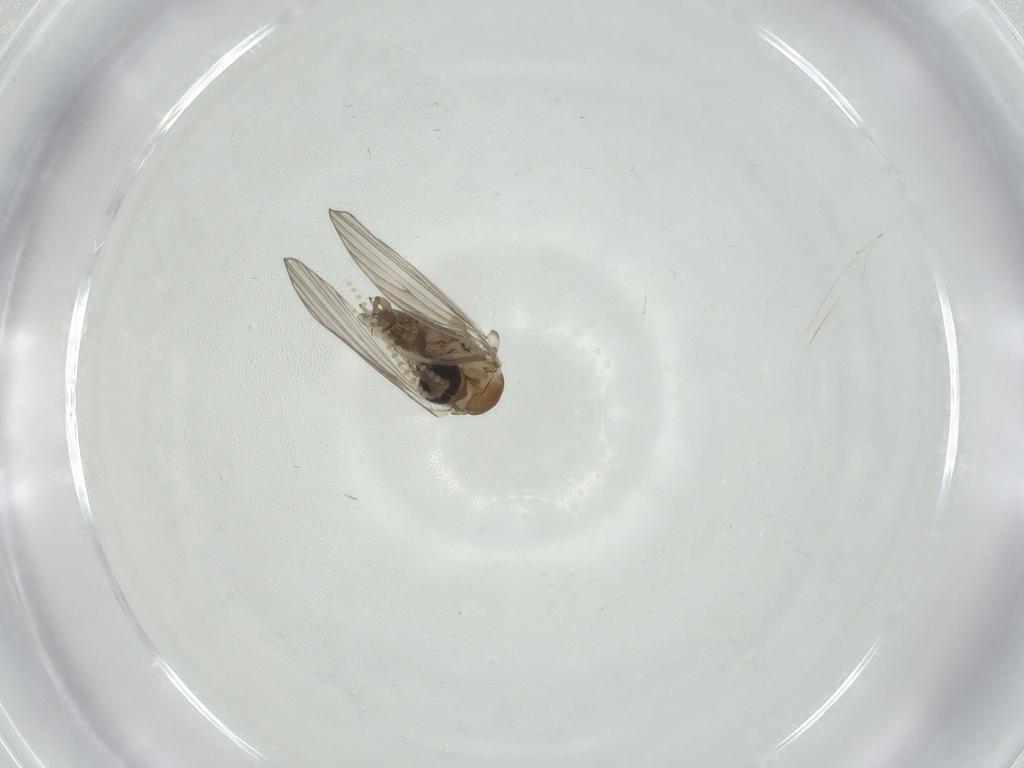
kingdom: Animalia
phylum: Arthropoda
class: Insecta
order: Diptera
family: Psychodidae
